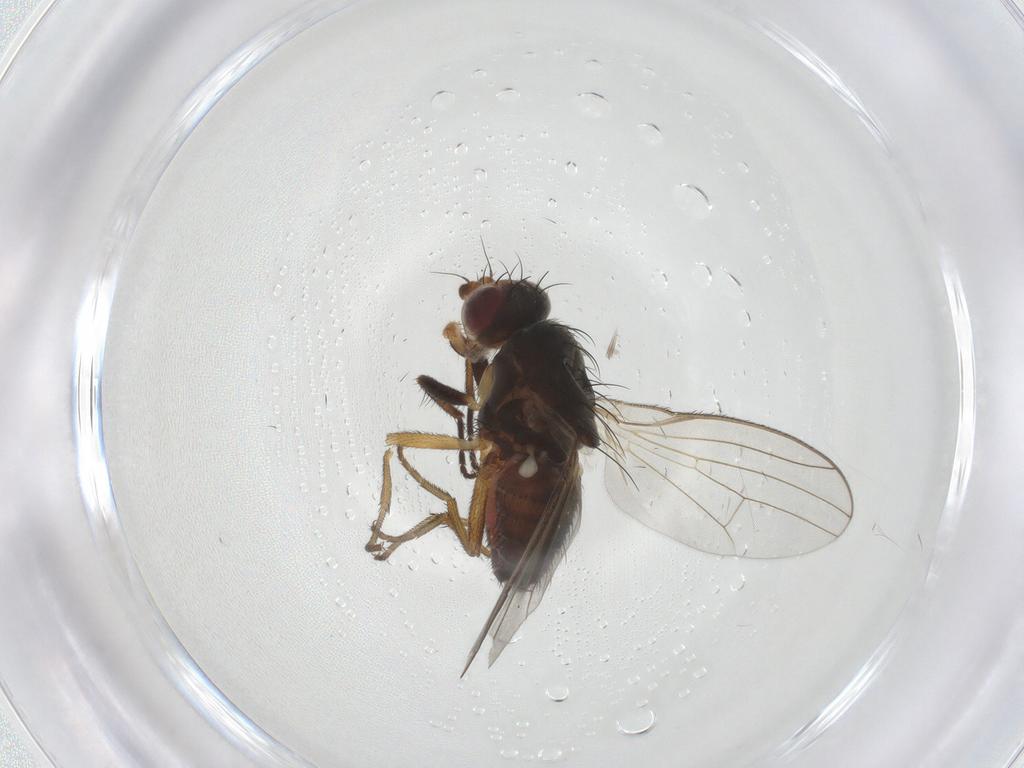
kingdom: Animalia
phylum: Arthropoda
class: Insecta
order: Diptera
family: Heleomyzidae
